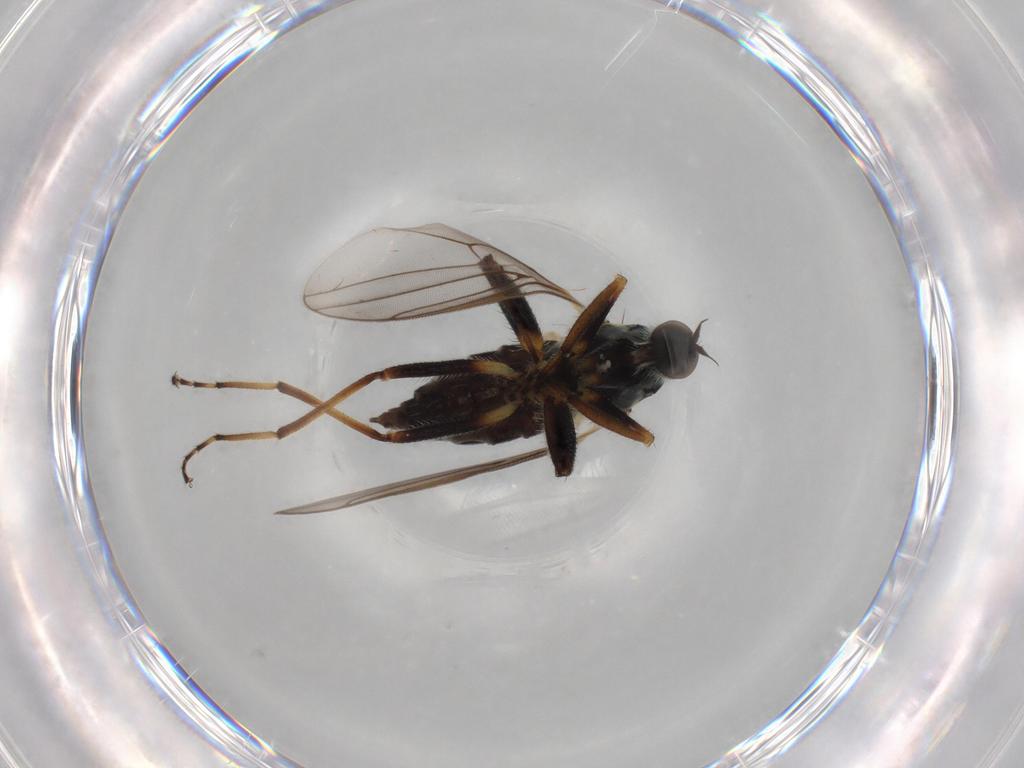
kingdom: Animalia
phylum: Arthropoda
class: Insecta
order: Diptera
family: Hybotidae
